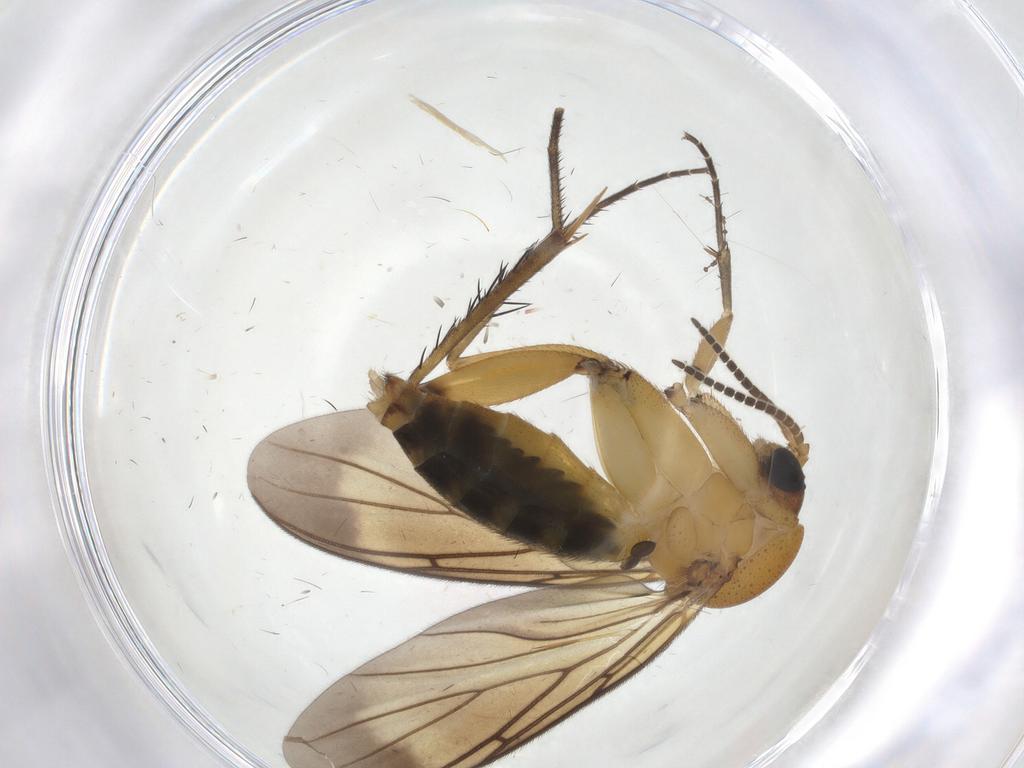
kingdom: Animalia
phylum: Arthropoda
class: Insecta
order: Diptera
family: Mycetophilidae
